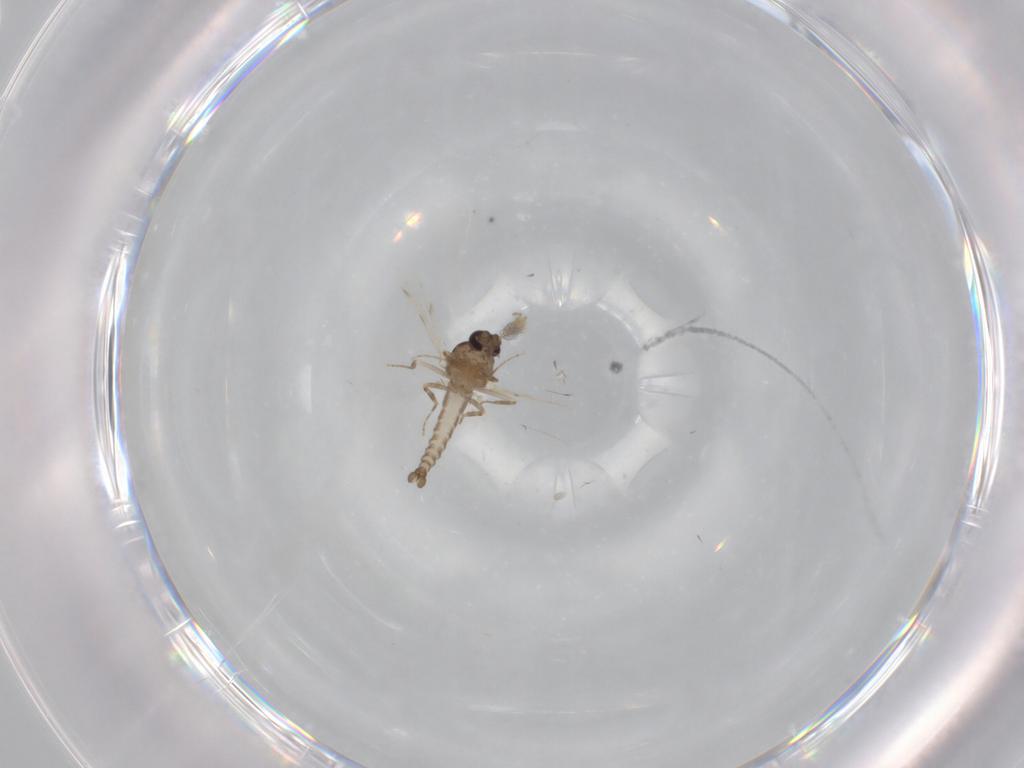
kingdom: Animalia
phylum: Arthropoda
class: Insecta
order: Diptera
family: Ceratopogonidae
